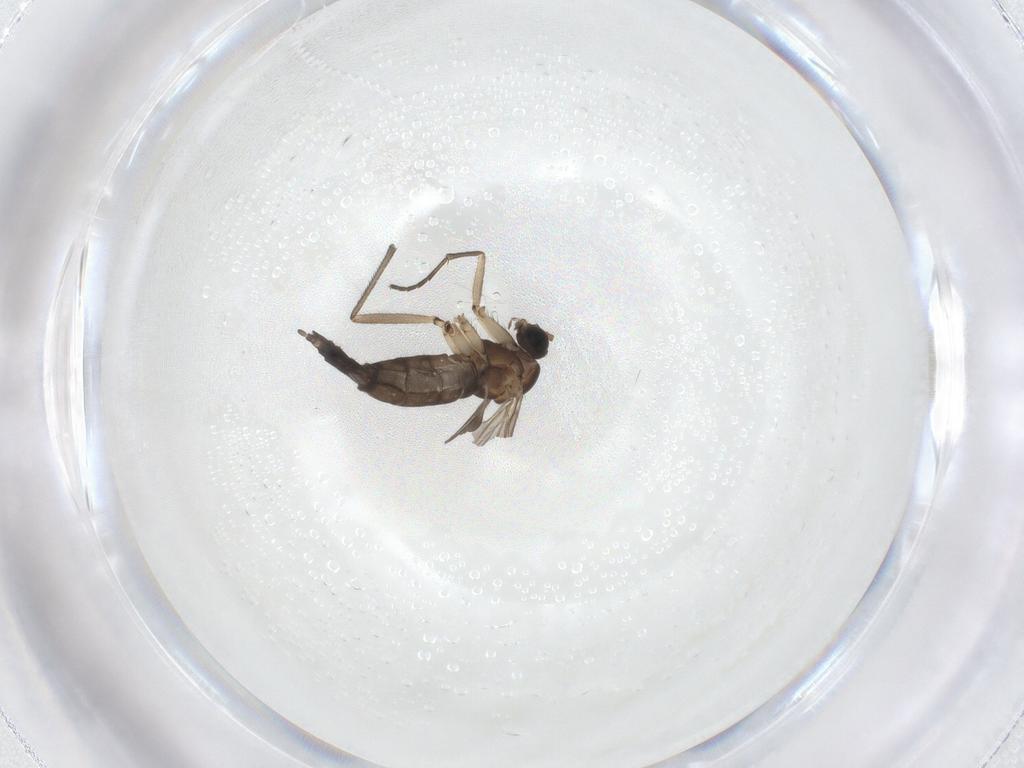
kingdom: Animalia
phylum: Arthropoda
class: Insecta
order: Diptera
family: Sciaridae
